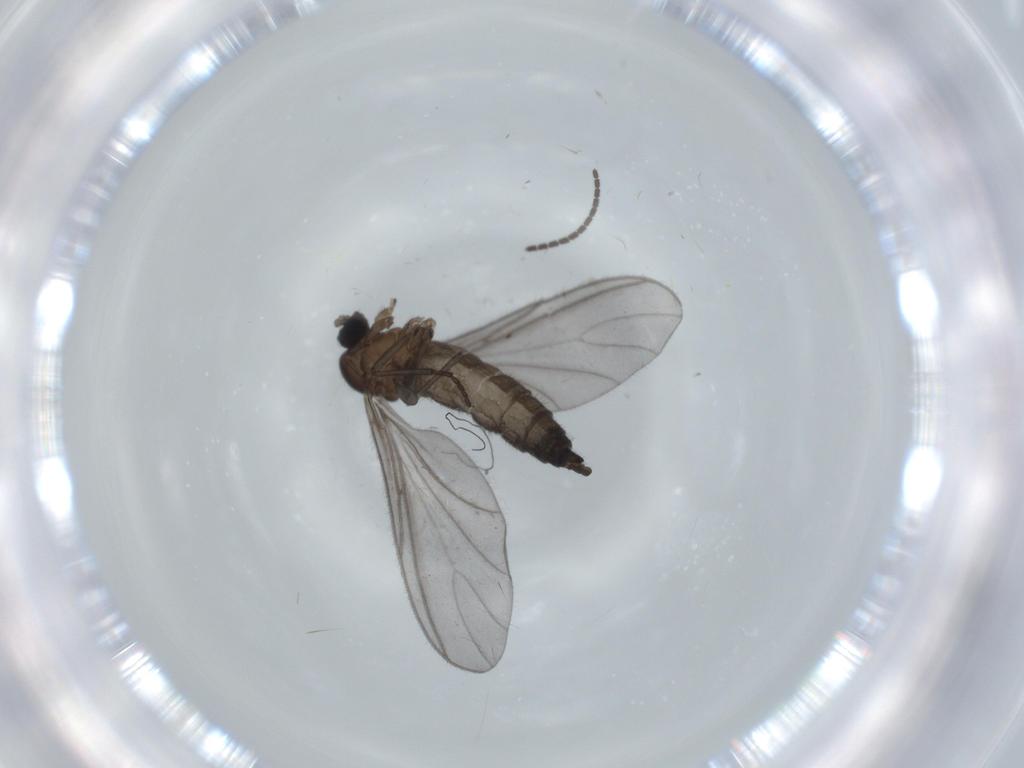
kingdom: Animalia
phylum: Arthropoda
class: Insecta
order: Diptera
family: Sciaridae
